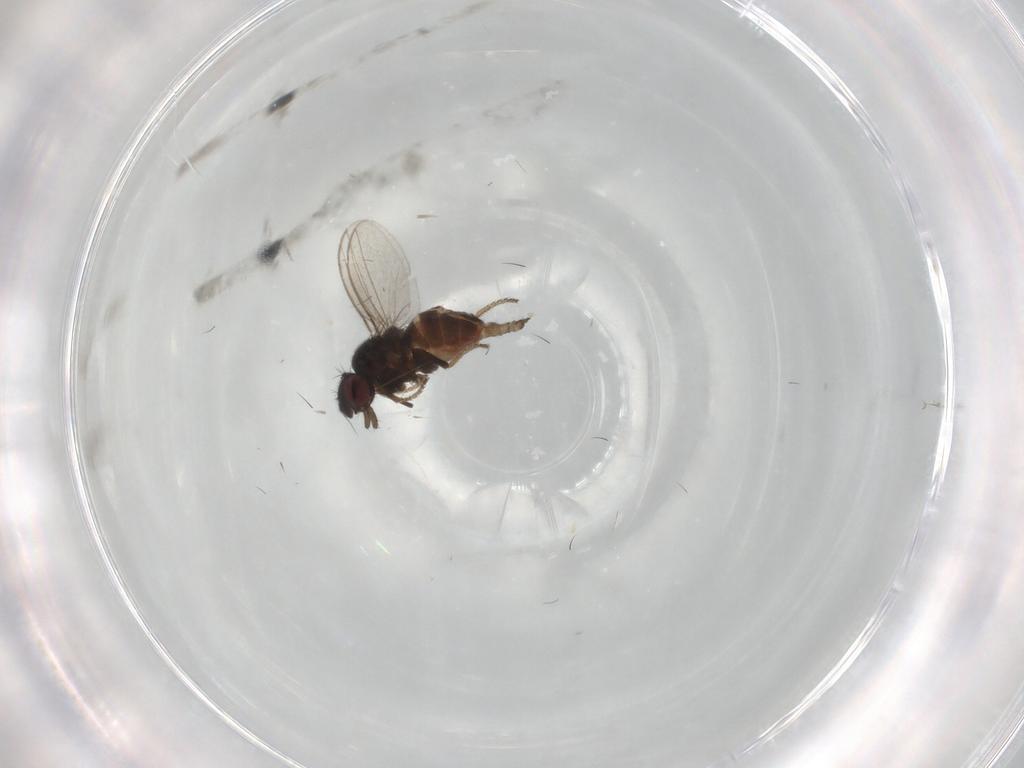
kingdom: Animalia
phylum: Arthropoda
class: Insecta
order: Diptera
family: Milichiidae
